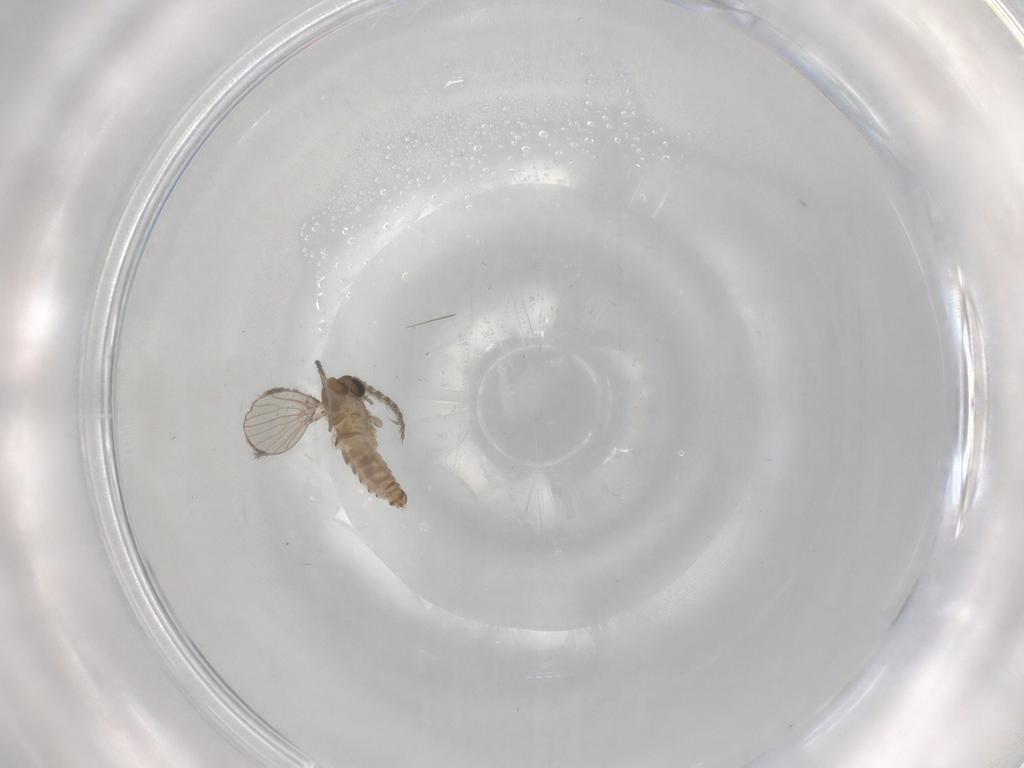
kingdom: Animalia
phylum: Arthropoda
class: Insecta
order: Diptera
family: Psychodidae
